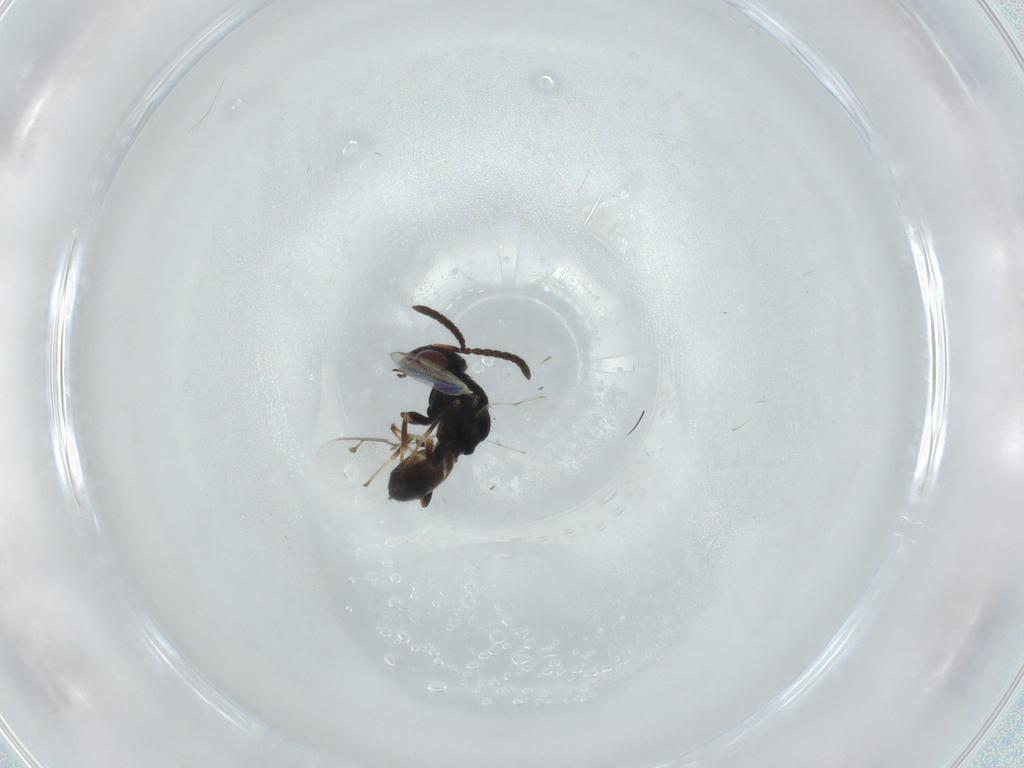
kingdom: Animalia
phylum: Arthropoda
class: Insecta
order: Hymenoptera
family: Pteromalidae
